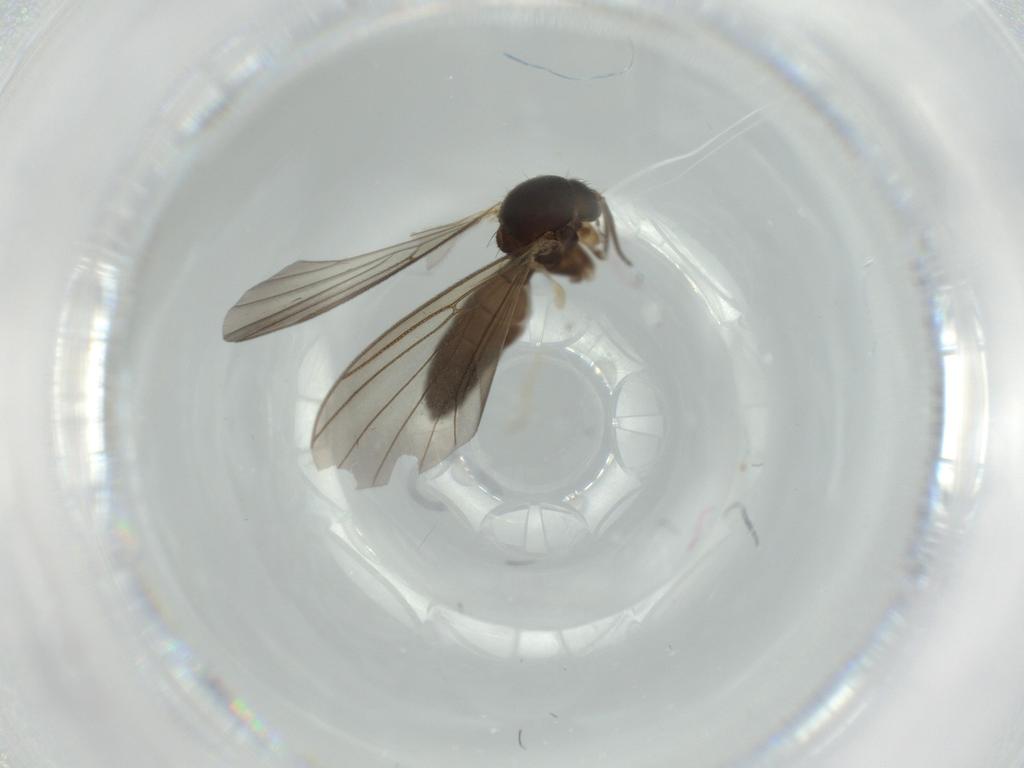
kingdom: Animalia
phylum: Arthropoda
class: Insecta
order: Diptera
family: Mycetophilidae
